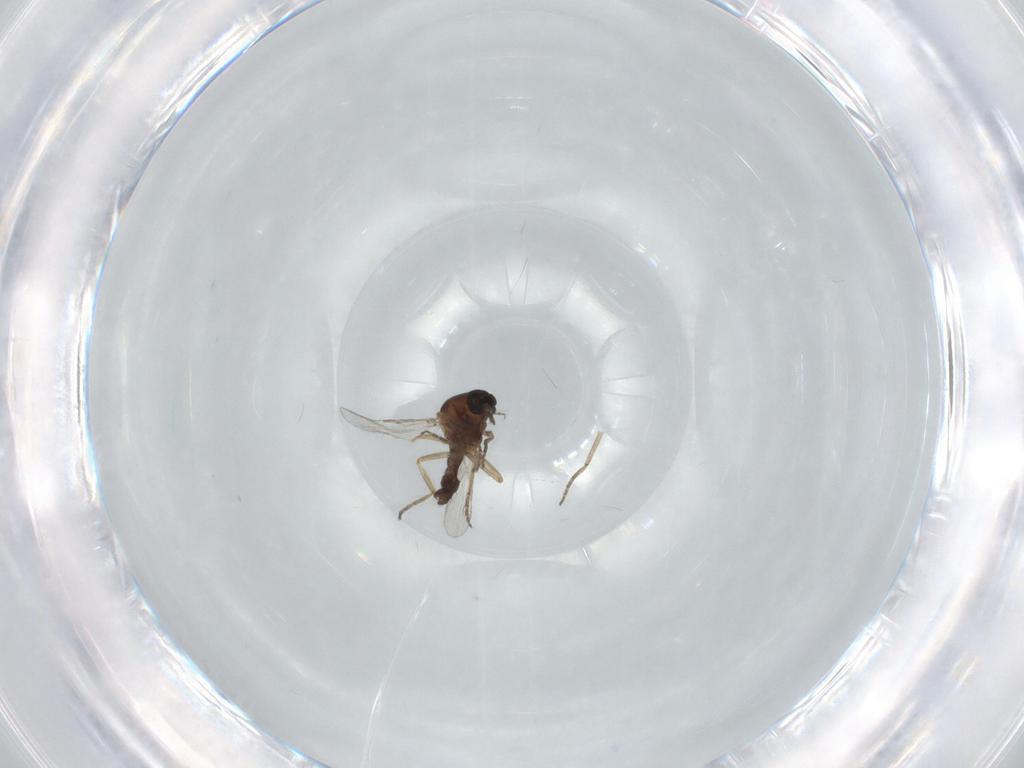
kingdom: Animalia
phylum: Arthropoda
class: Insecta
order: Diptera
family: Ceratopogonidae
